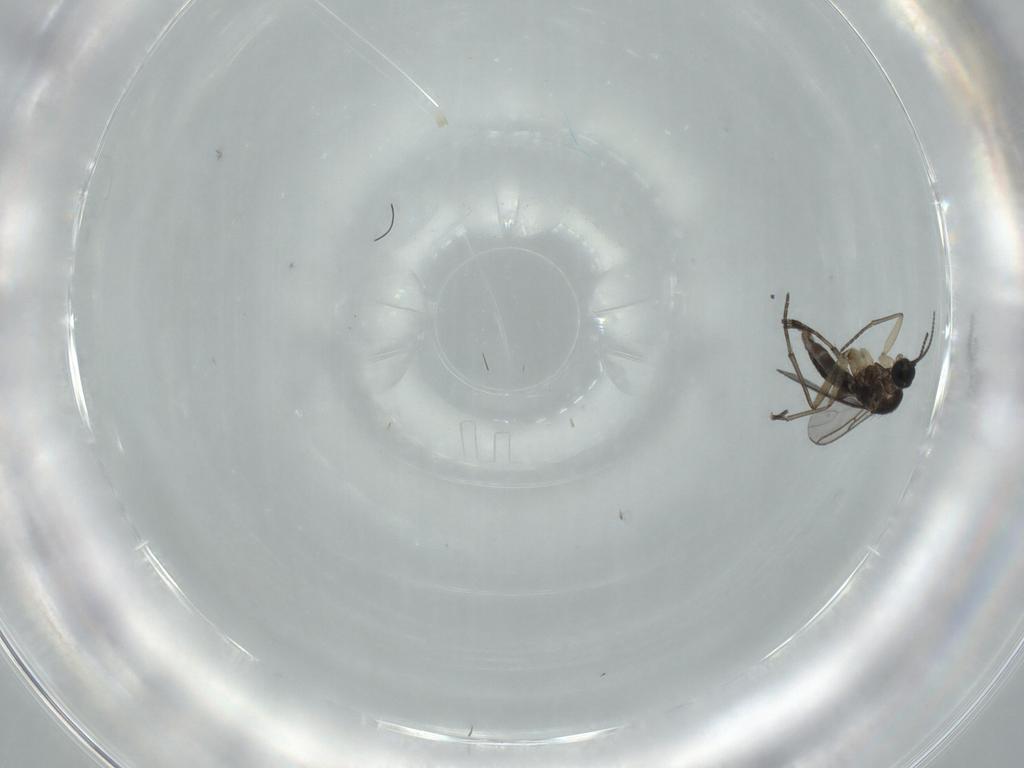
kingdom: Animalia
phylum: Arthropoda
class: Insecta
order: Diptera
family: Sciaridae
